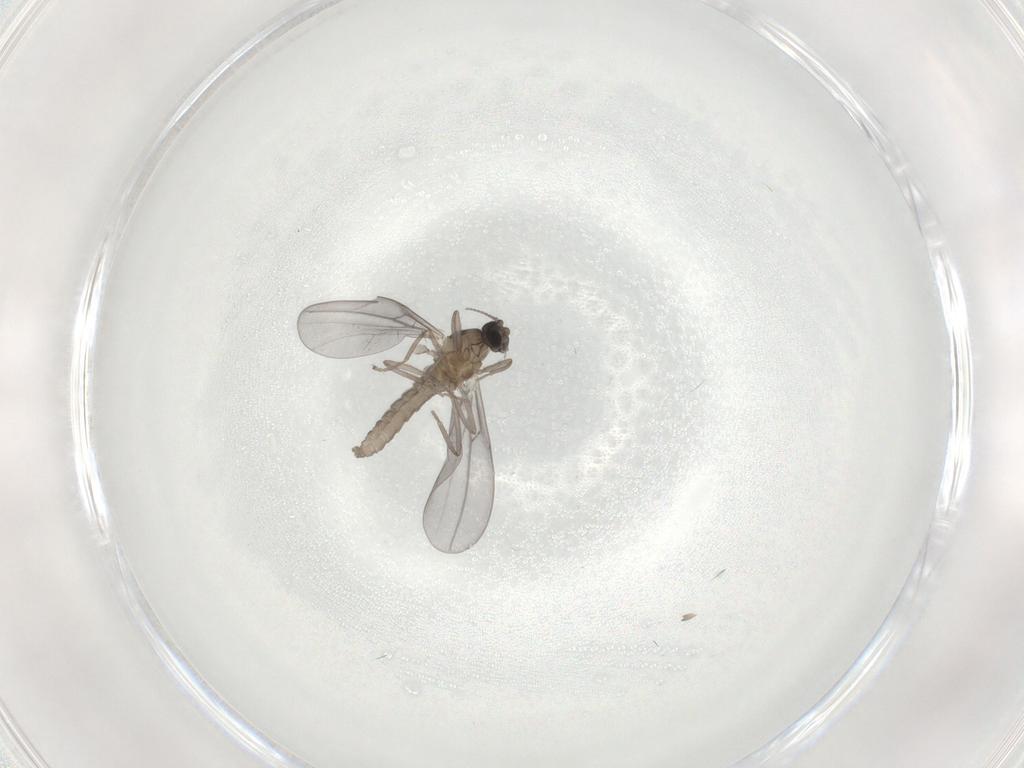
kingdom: Animalia
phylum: Arthropoda
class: Insecta
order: Diptera
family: Cecidomyiidae
